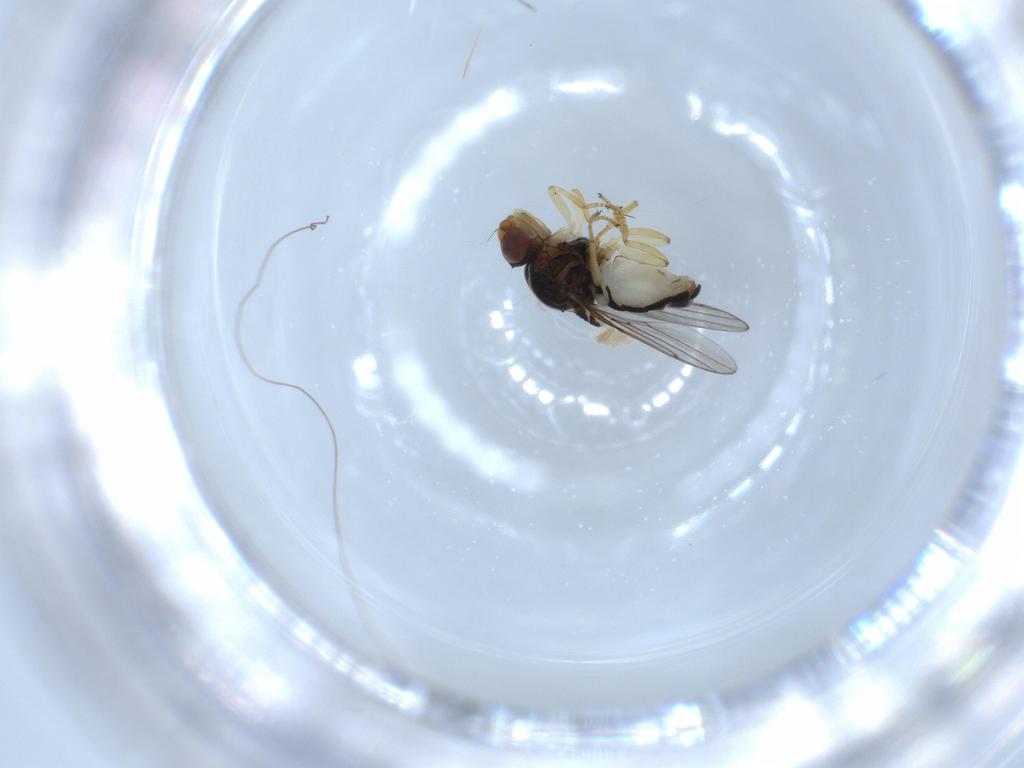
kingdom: Animalia
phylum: Arthropoda
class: Insecta
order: Diptera
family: Chloropidae
